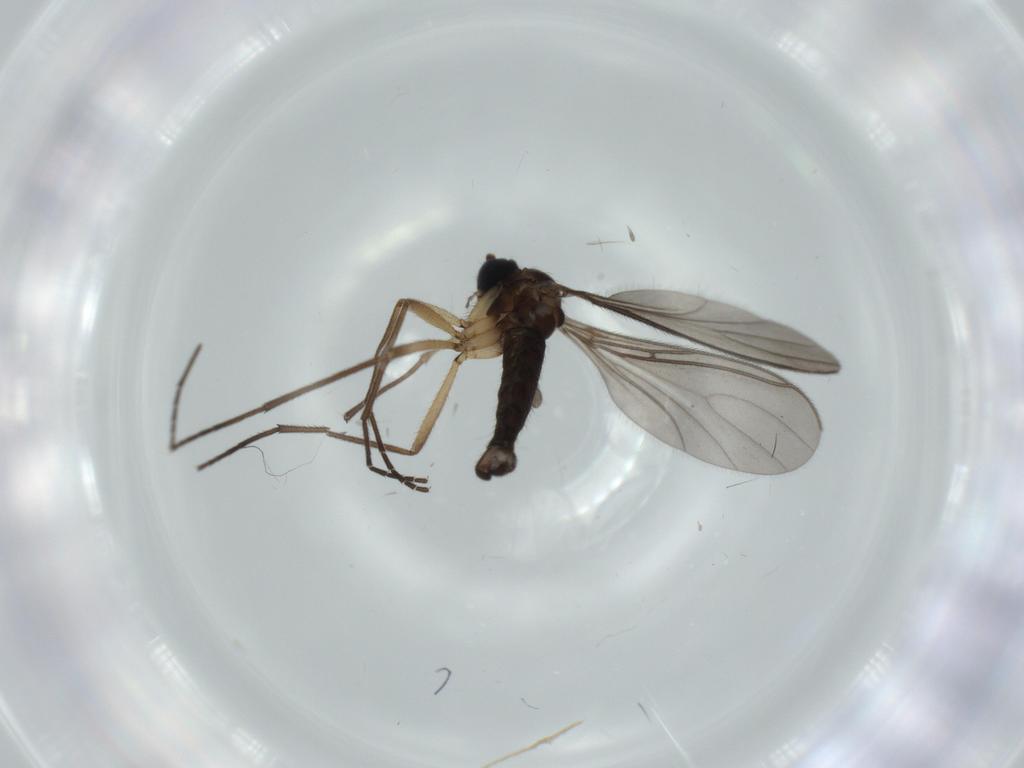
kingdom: Animalia
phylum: Arthropoda
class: Insecta
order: Diptera
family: Sciaridae
